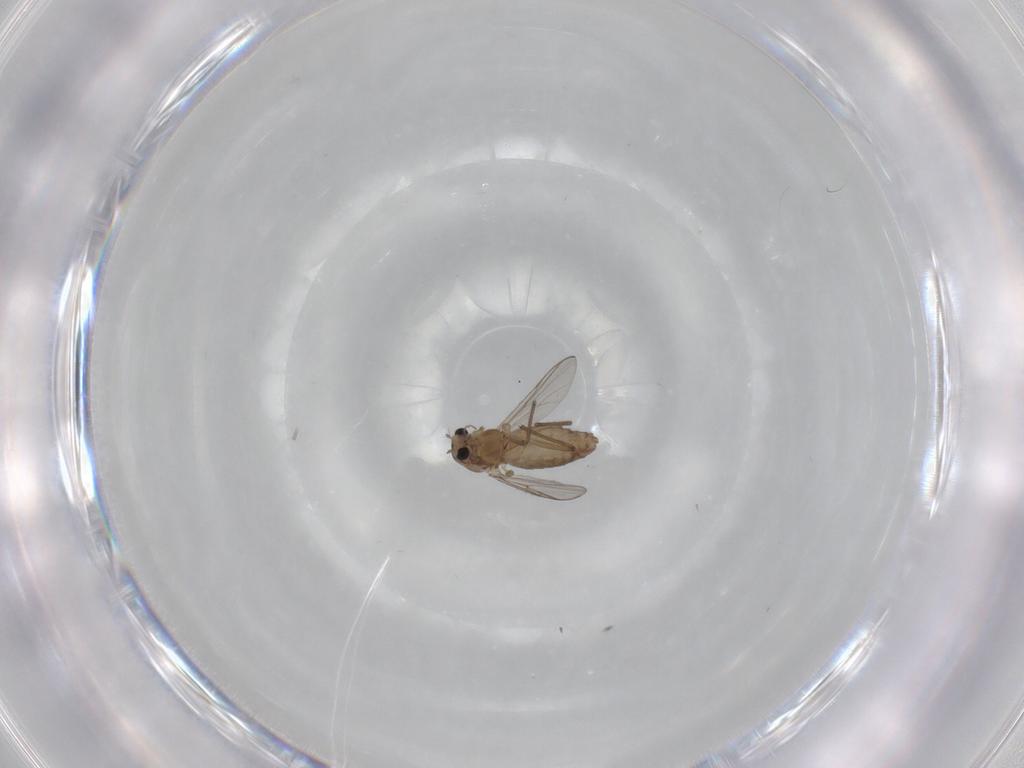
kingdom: Animalia
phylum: Arthropoda
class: Insecta
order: Diptera
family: Chironomidae
